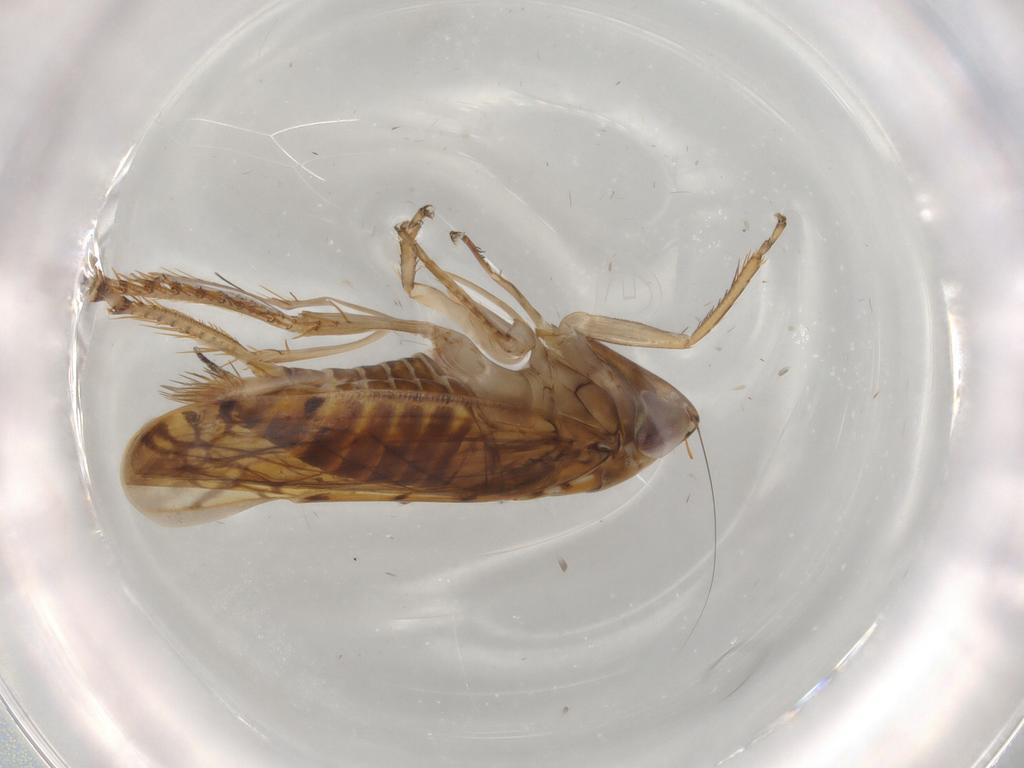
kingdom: Animalia
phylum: Arthropoda
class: Insecta
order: Hemiptera
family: Cicadellidae
